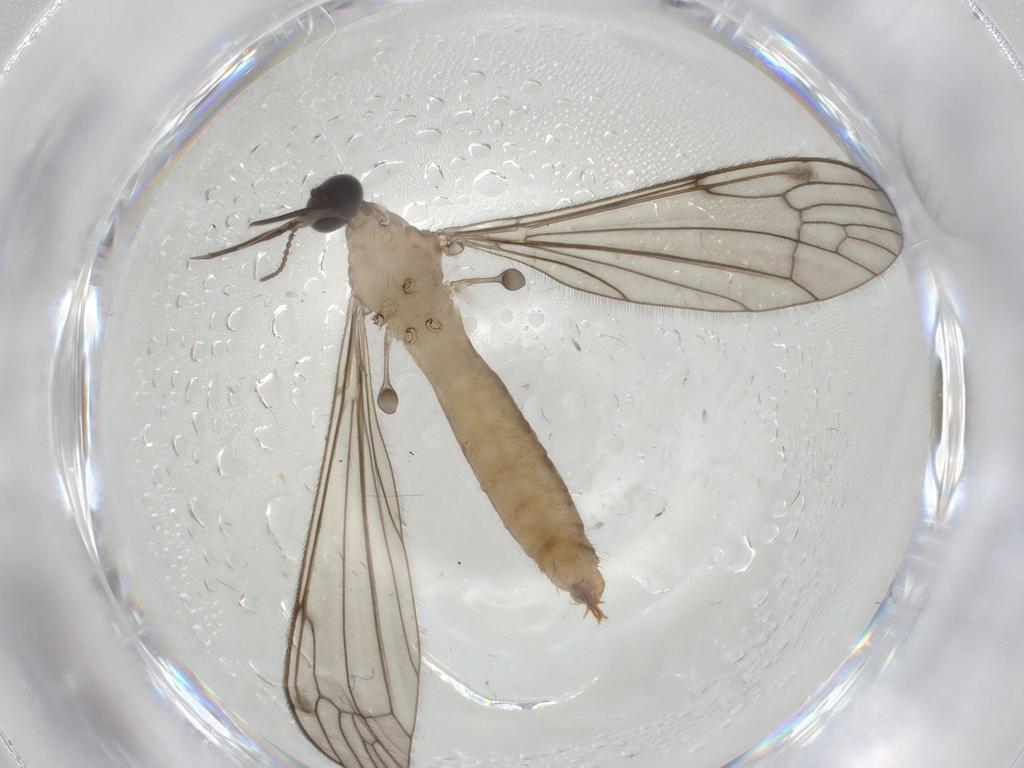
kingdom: Animalia
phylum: Arthropoda
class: Insecta
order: Diptera
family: Limoniidae
